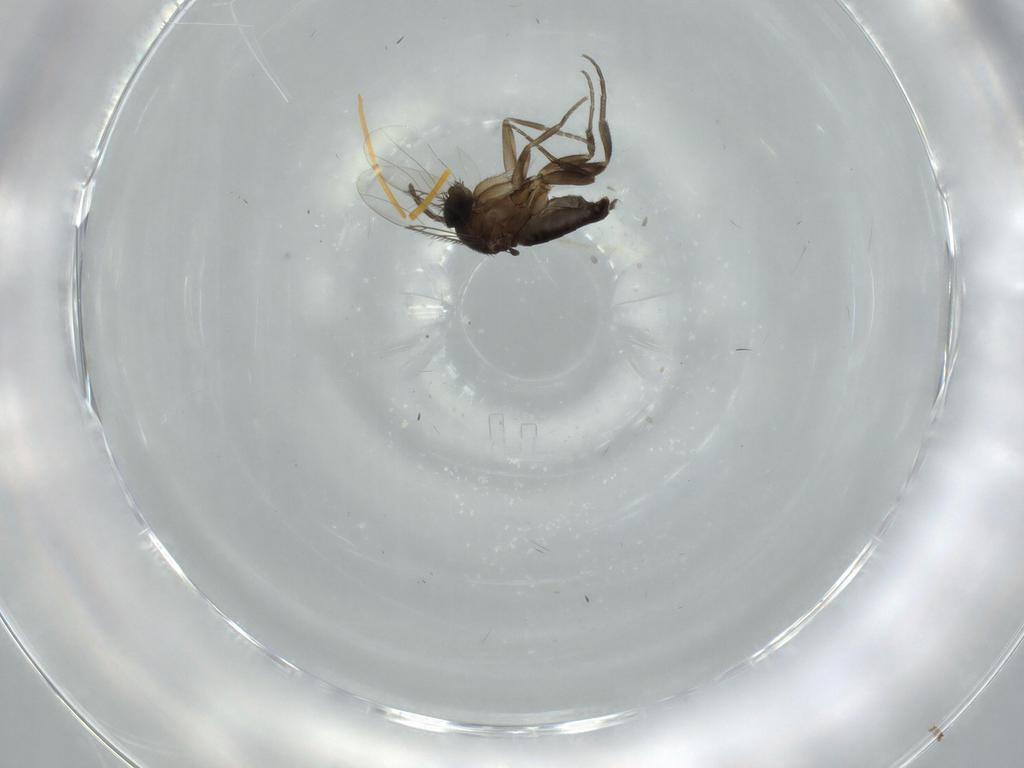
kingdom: Animalia
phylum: Arthropoda
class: Insecta
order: Diptera
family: Phoridae
